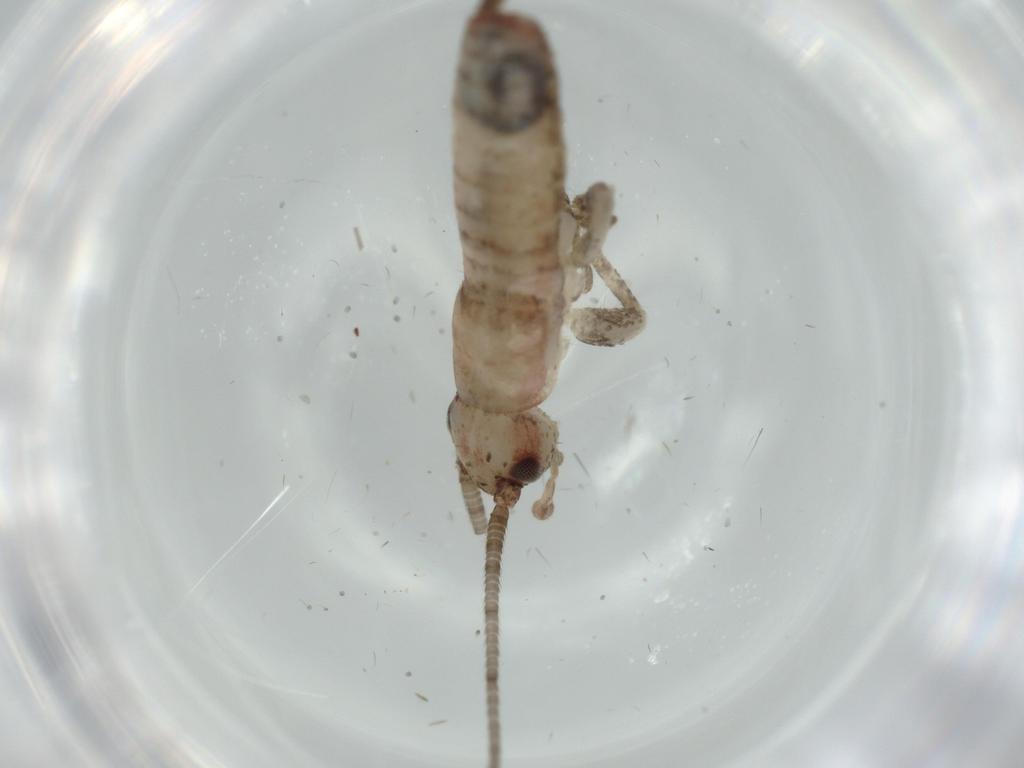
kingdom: Animalia
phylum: Arthropoda
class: Insecta
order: Orthoptera
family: Mogoplistidae
